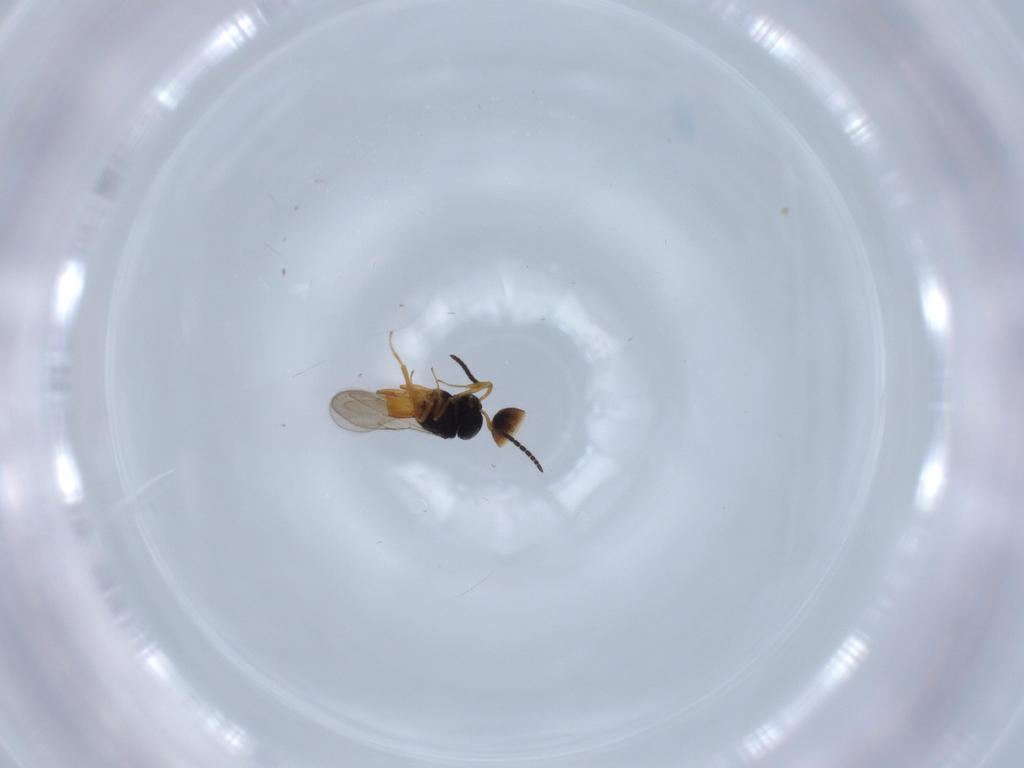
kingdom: Animalia
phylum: Arthropoda
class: Insecta
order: Hymenoptera
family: Scelionidae
